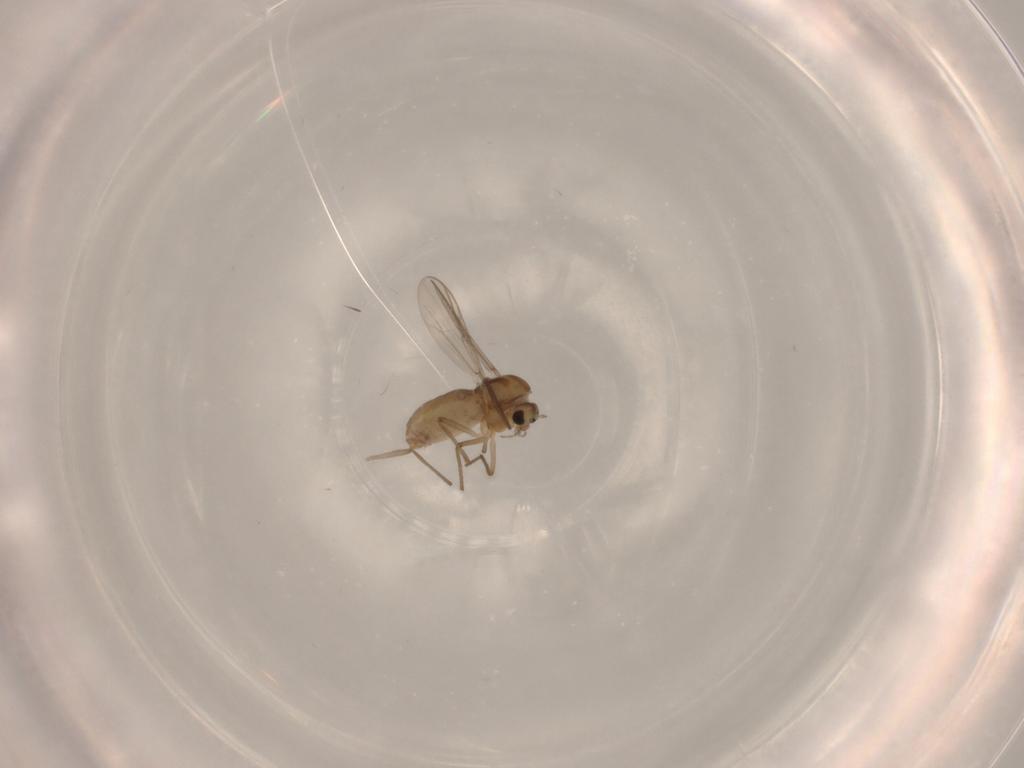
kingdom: Animalia
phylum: Arthropoda
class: Insecta
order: Diptera
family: Chironomidae
